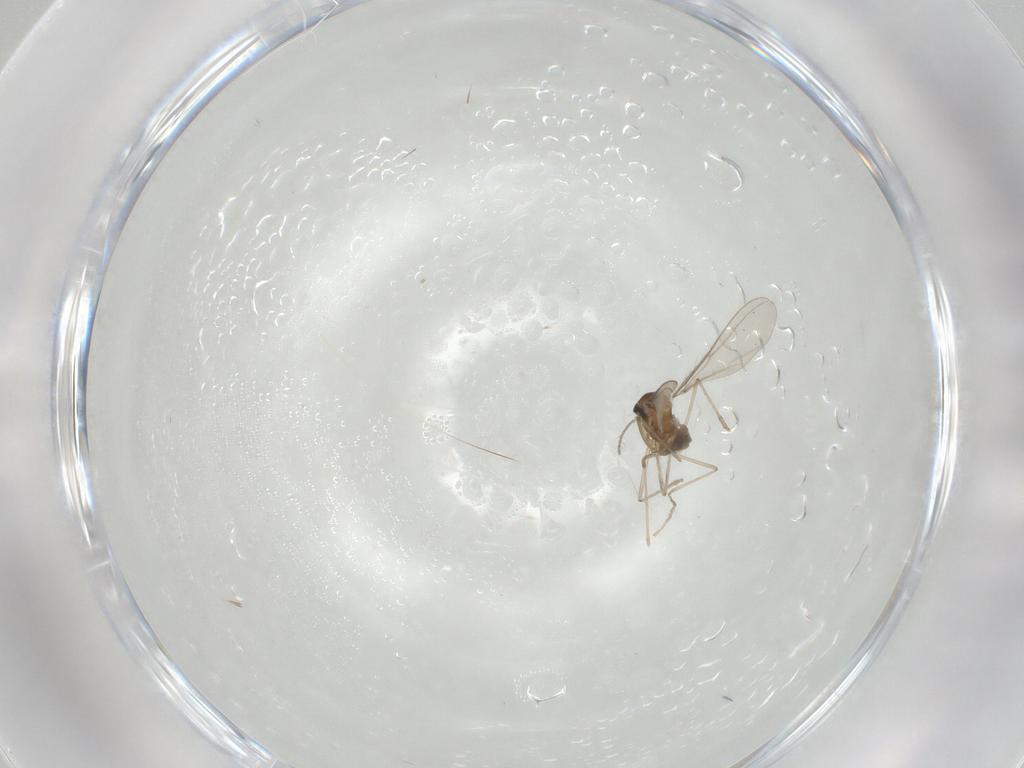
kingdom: Animalia
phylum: Arthropoda
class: Insecta
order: Diptera
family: Cecidomyiidae
